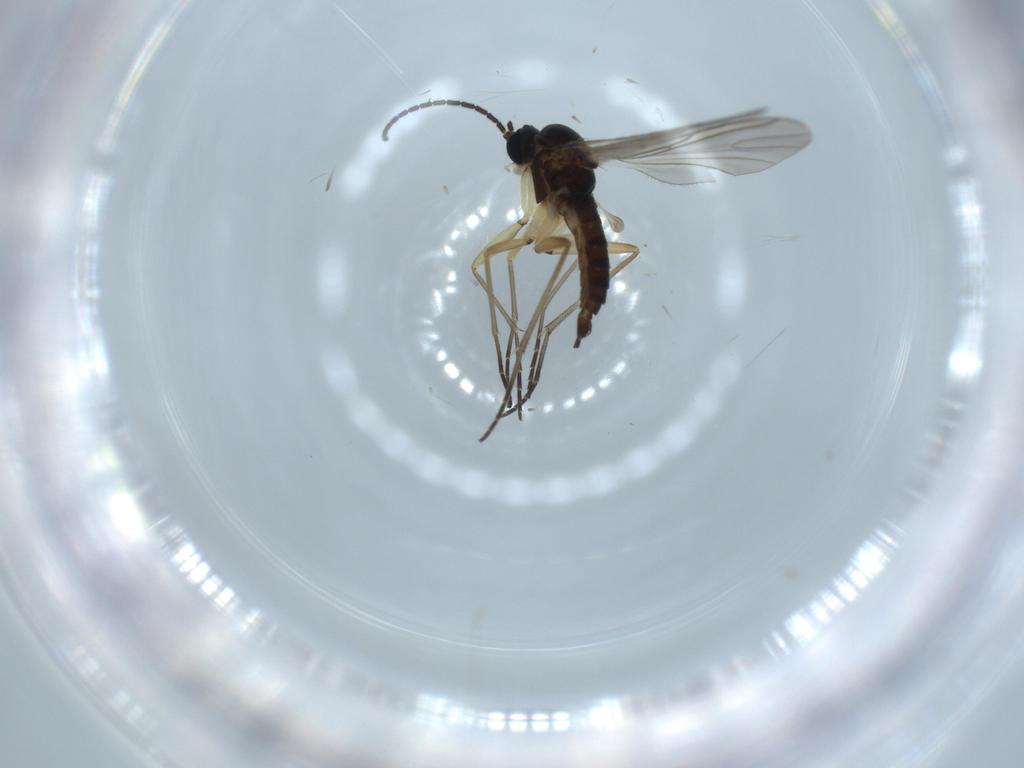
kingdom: Animalia
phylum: Arthropoda
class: Insecta
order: Diptera
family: Sciaridae
